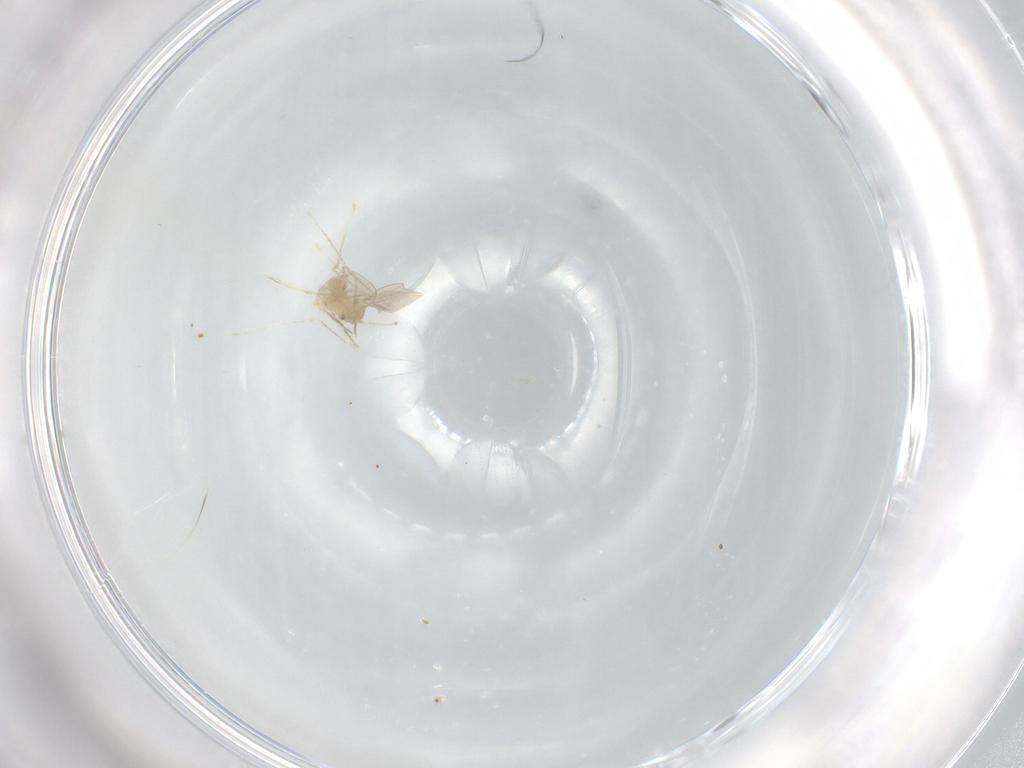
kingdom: Animalia
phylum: Arthropoda
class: Insecta
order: Diptera
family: Cecidomyiidae
